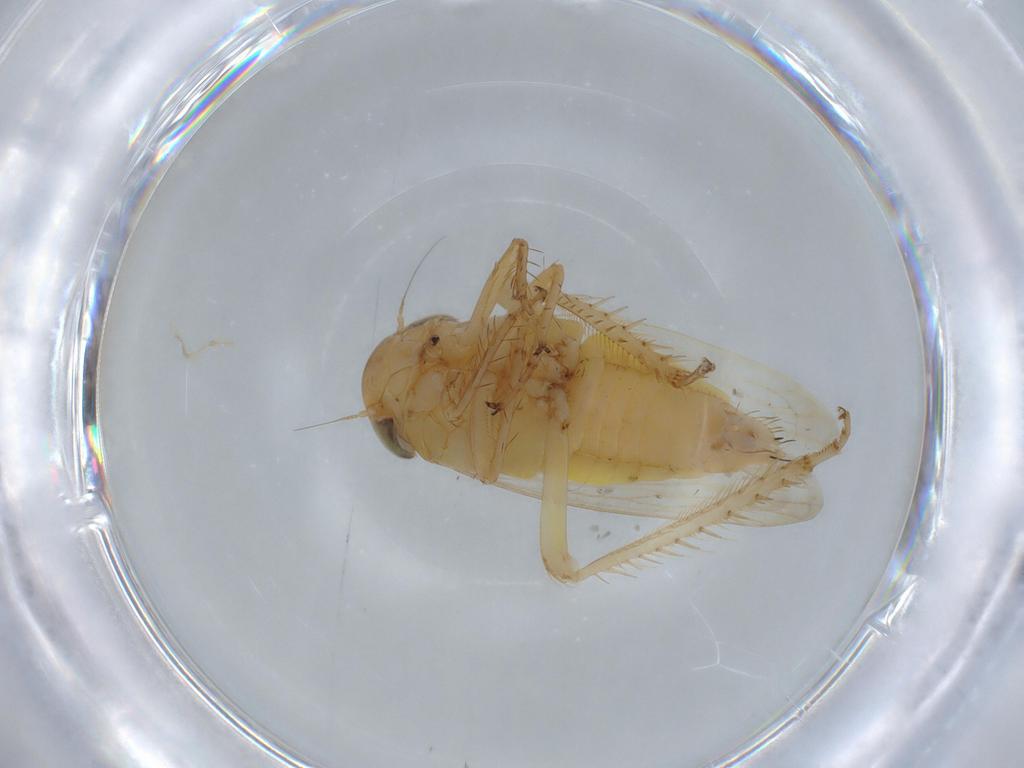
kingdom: Animalia
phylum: Arthropoda
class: Insecta
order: Hemiptera
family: Cicadellidae
